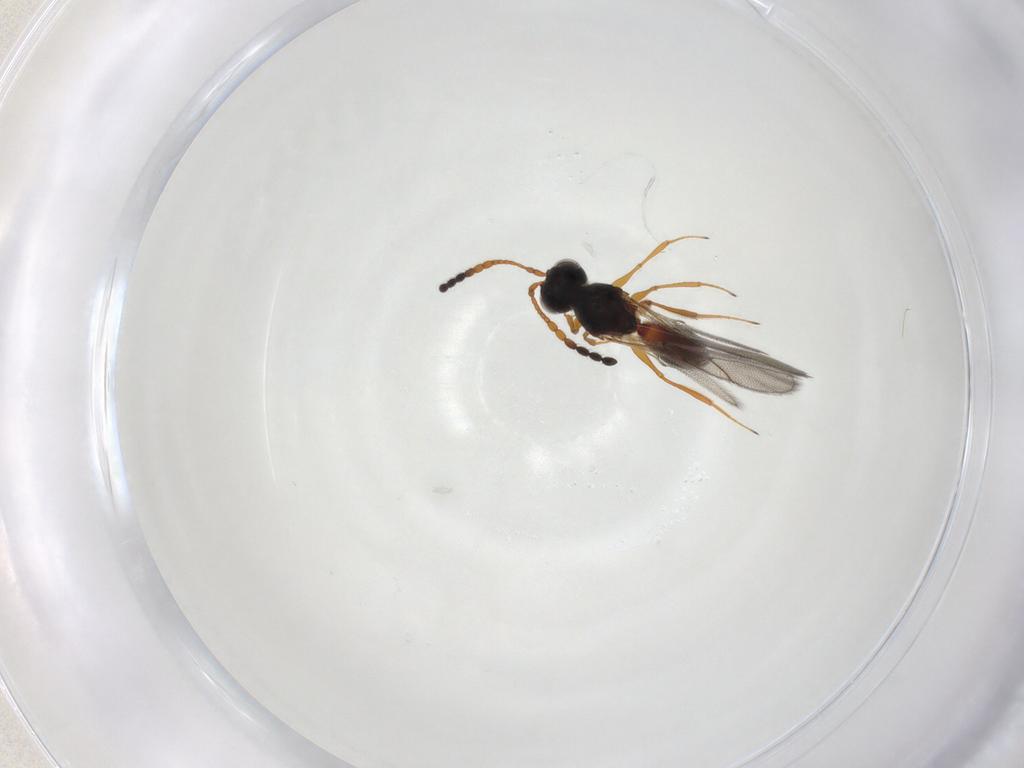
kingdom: Animalia
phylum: Arthropoda
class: Insecta
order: Hymenoptera
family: Figitidae
